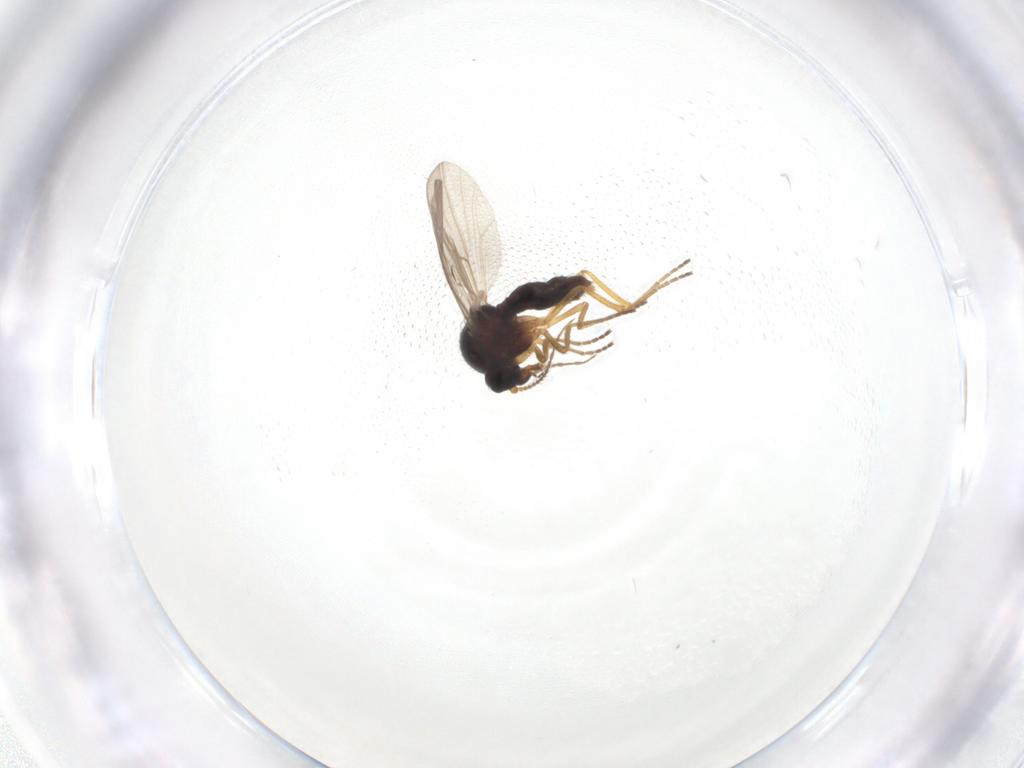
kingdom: Animalia
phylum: Arthropoda
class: Insecta
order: Diptera
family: Ceratopogonidae
